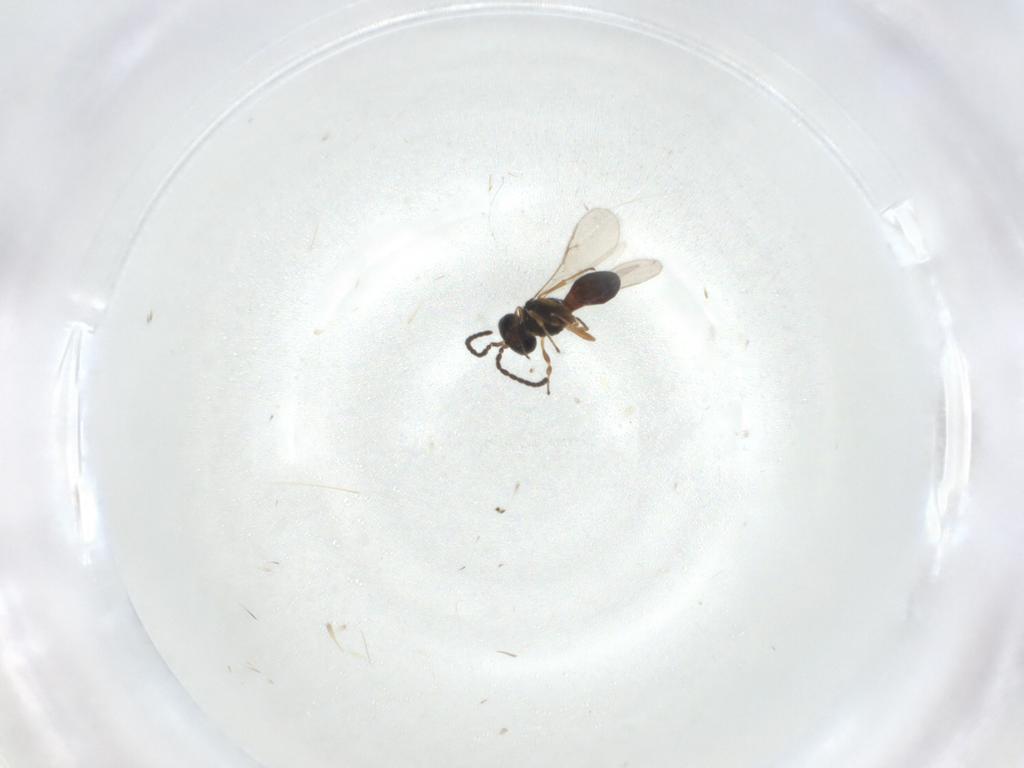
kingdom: Animalia
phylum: Arthropoda
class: Insecta
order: Hymenoptera
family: Scelionidae
